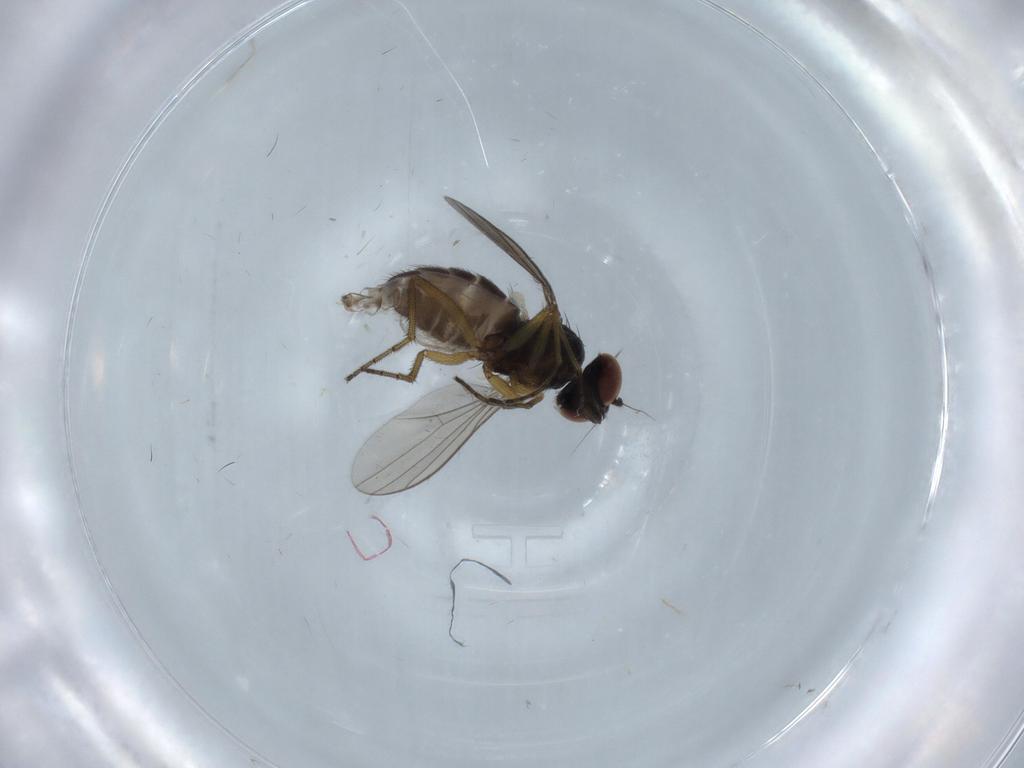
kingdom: Animalia
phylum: Arthropoda
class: Insecta
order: Diptera
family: Dolichopodidae
